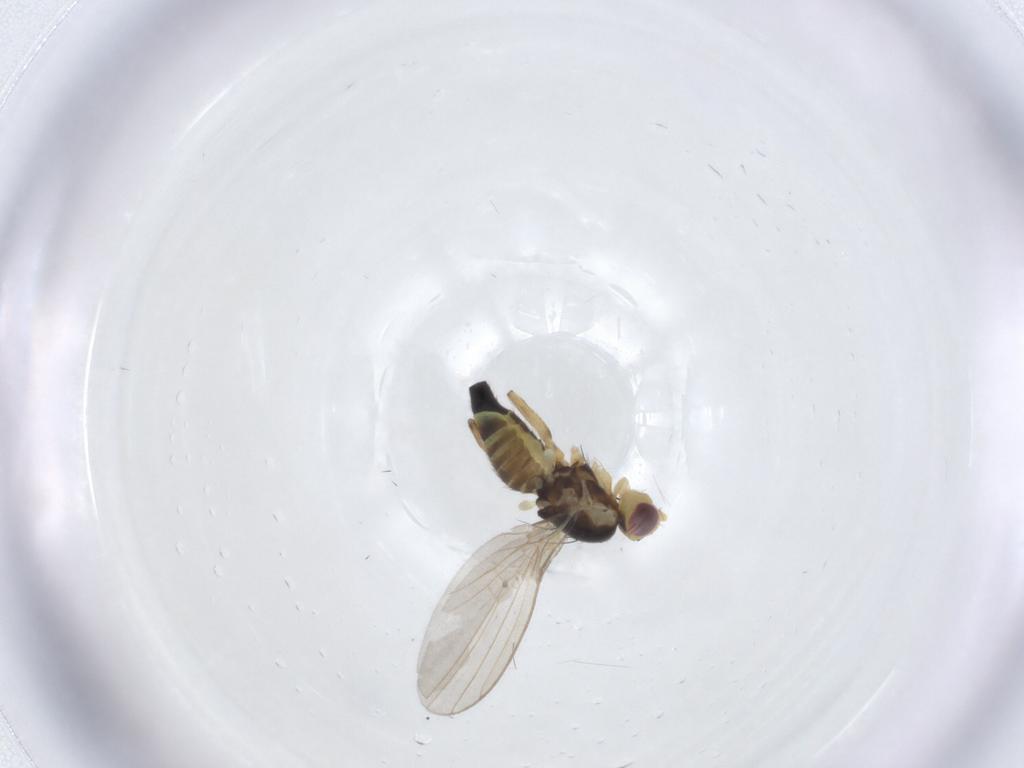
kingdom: Animalia
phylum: Arthropoda
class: Insecta
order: Diptera
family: Agromyzidae
